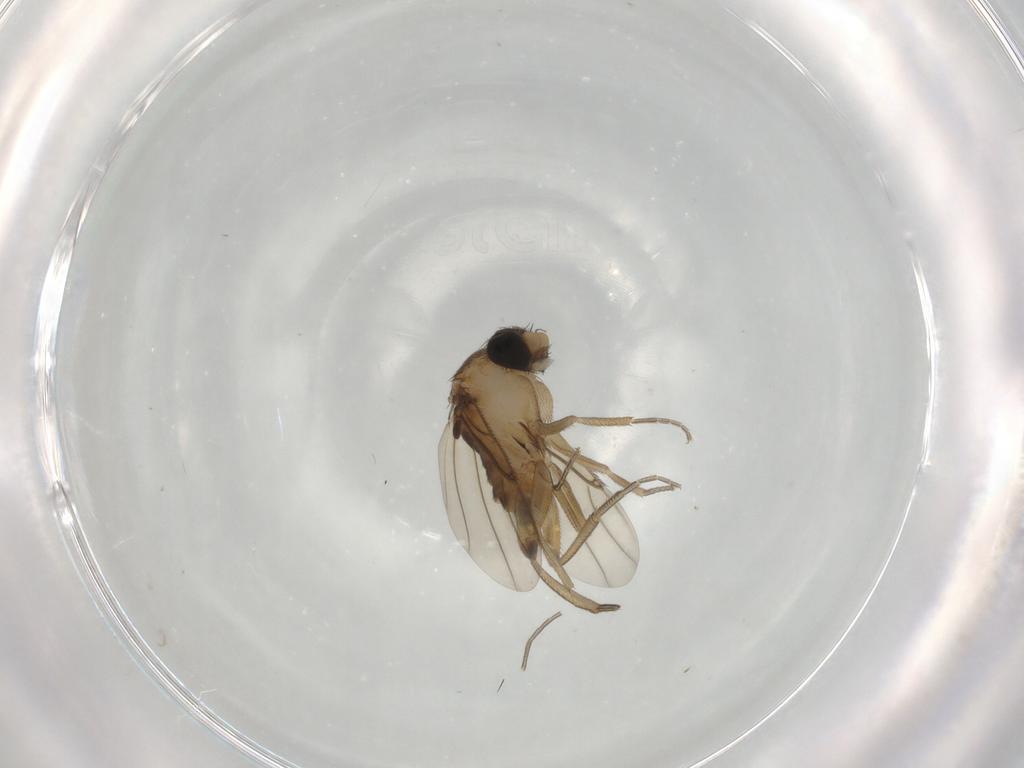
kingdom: Animalia
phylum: Arthropoda
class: Insecta
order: Diptera
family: Phoridae
